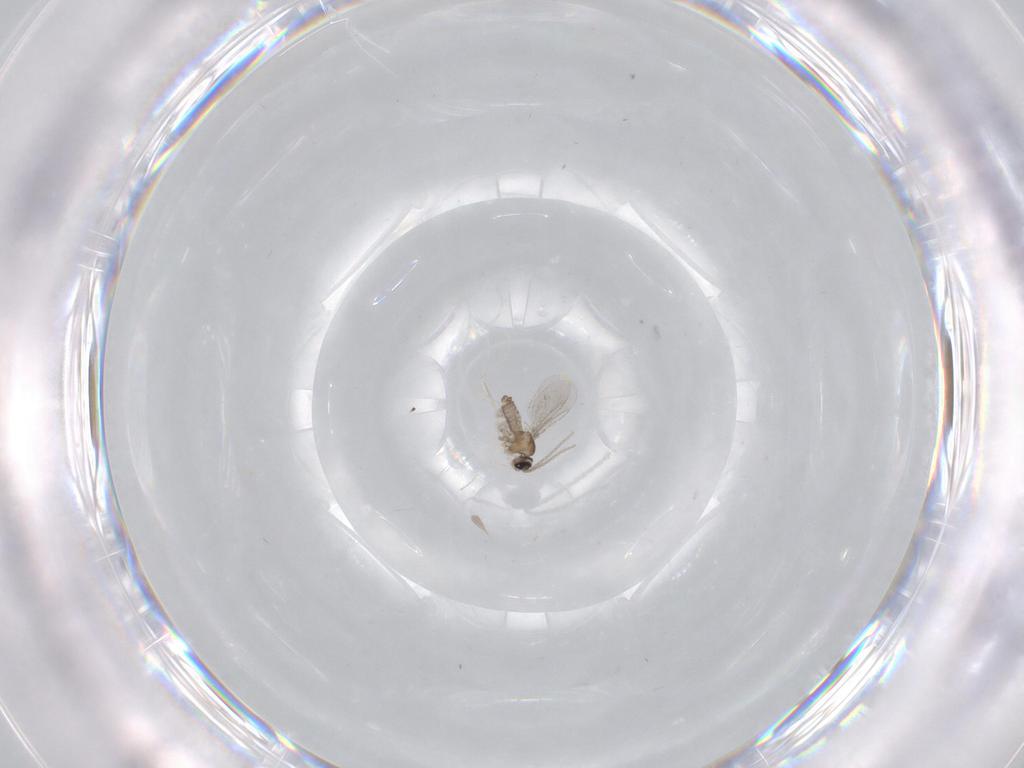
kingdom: Animalia
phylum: Arthropoda
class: Insecta
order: Diptera
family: Cecidomyiidae
